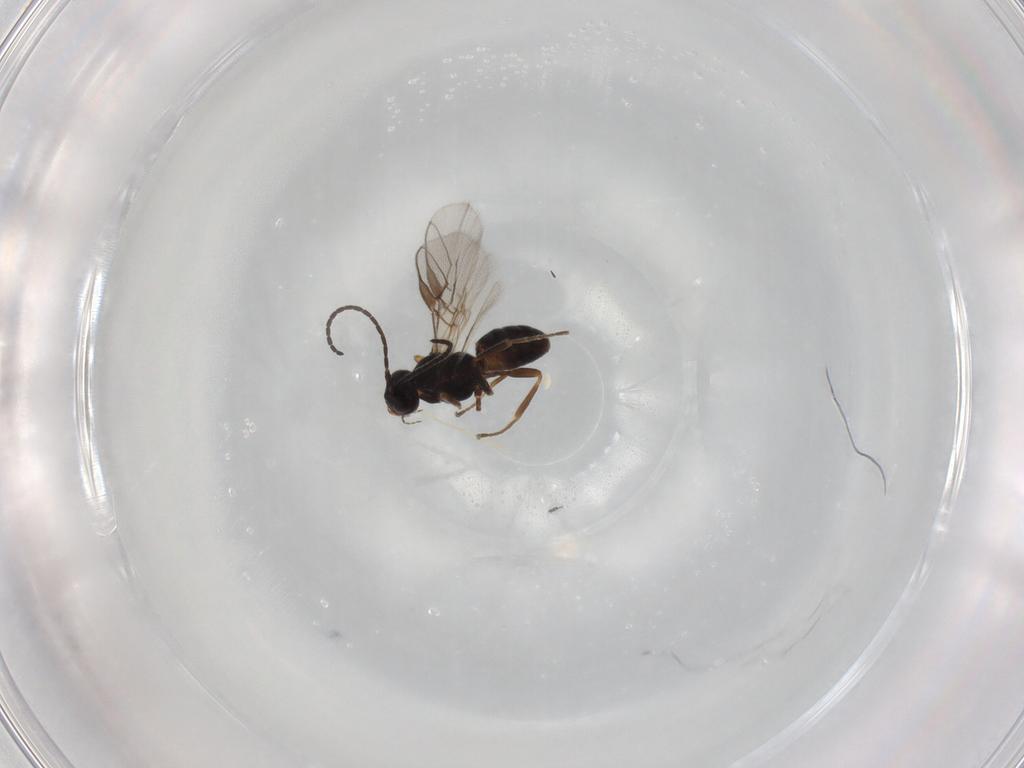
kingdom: Animalia
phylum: Arthropoda
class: Insecta
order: Hymenoptera
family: Braconidae
